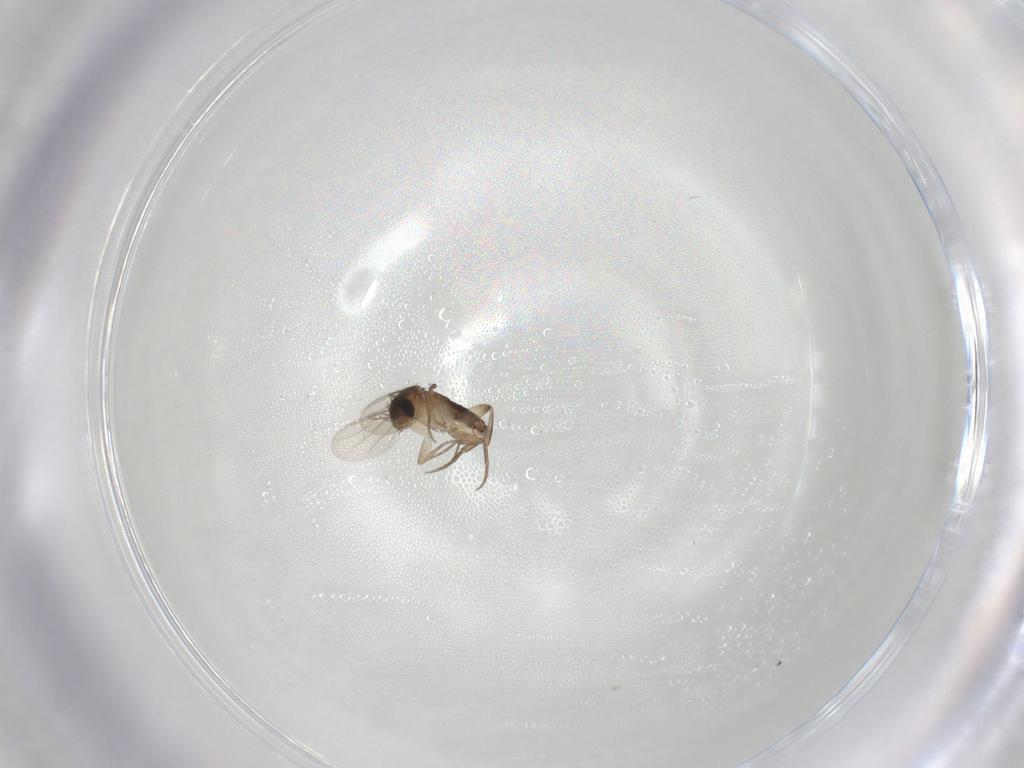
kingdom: Animalia
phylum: Arthropoda
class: Insecta
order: Diptera
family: Phoridae
